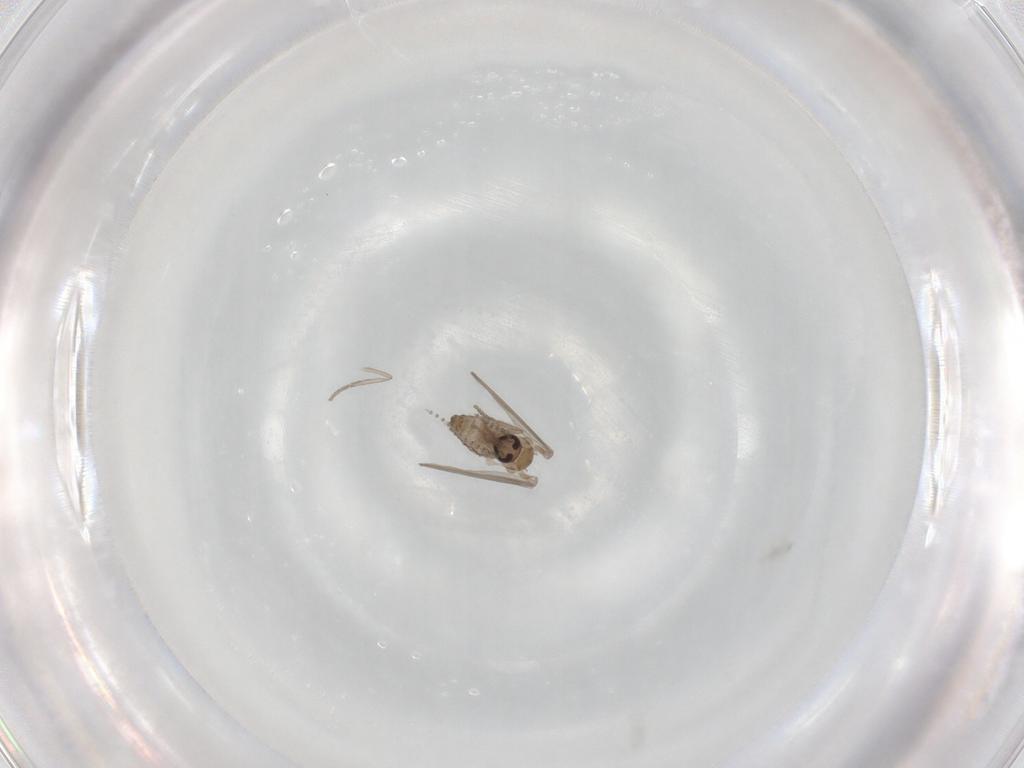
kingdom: Animalia
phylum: Arthropoda
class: Insecta
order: Diptera
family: Psychodidae
